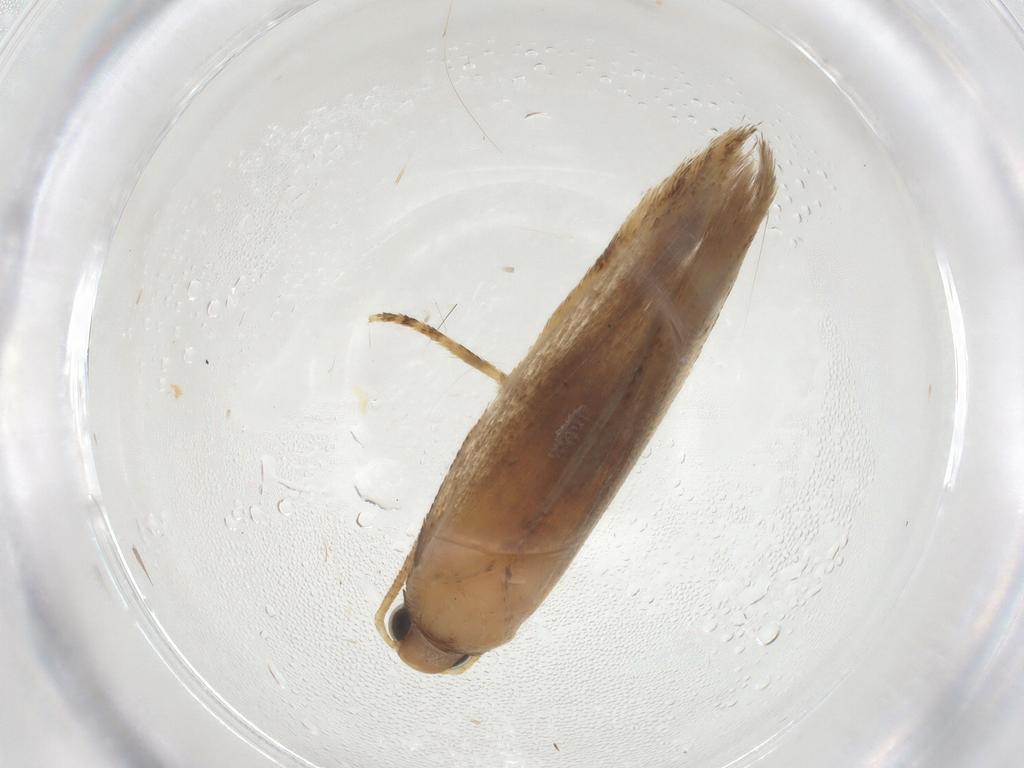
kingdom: Animalia
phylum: Arthropoda
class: Insecta
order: Lepidoptera
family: Gelechiidae
